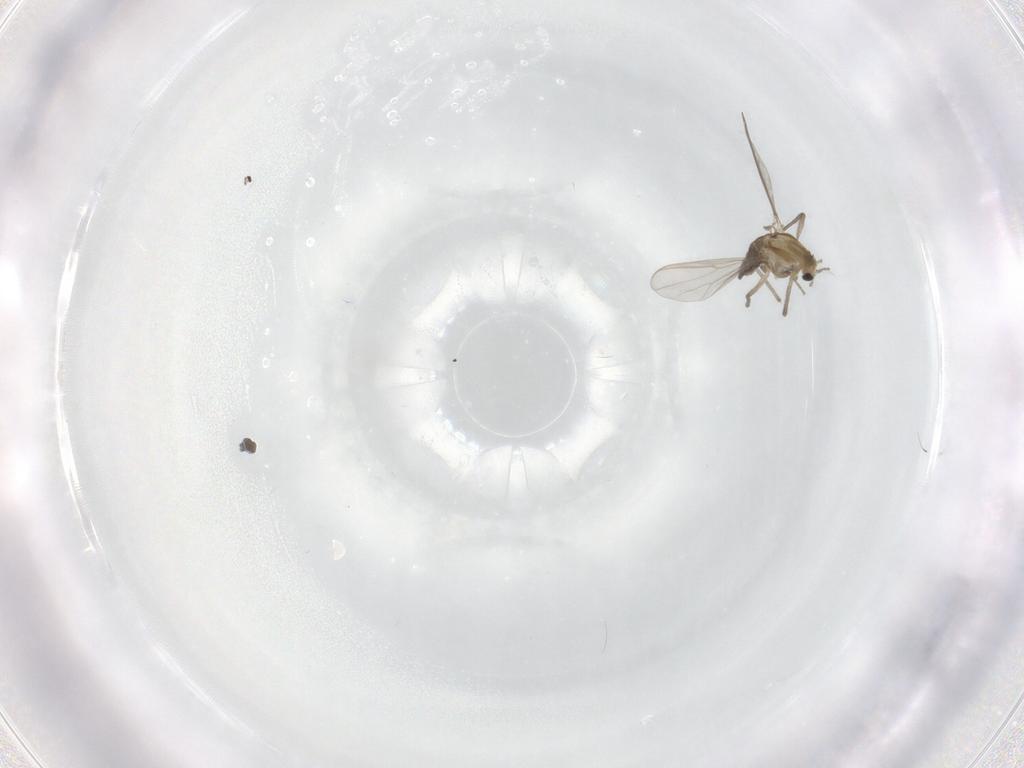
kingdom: Animalia
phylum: Arthropoda
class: Insecta
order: Diptera
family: Chironomidae
